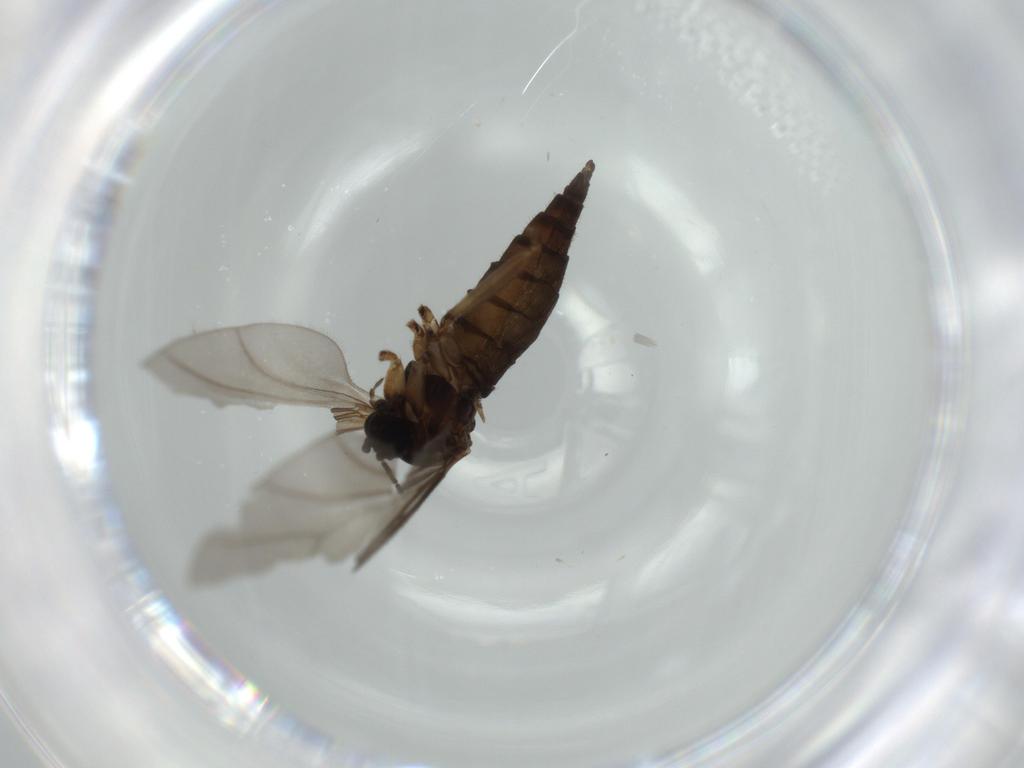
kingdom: Animalia
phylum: Arthropoda
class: Insecta
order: Diptera
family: Sciaridae
